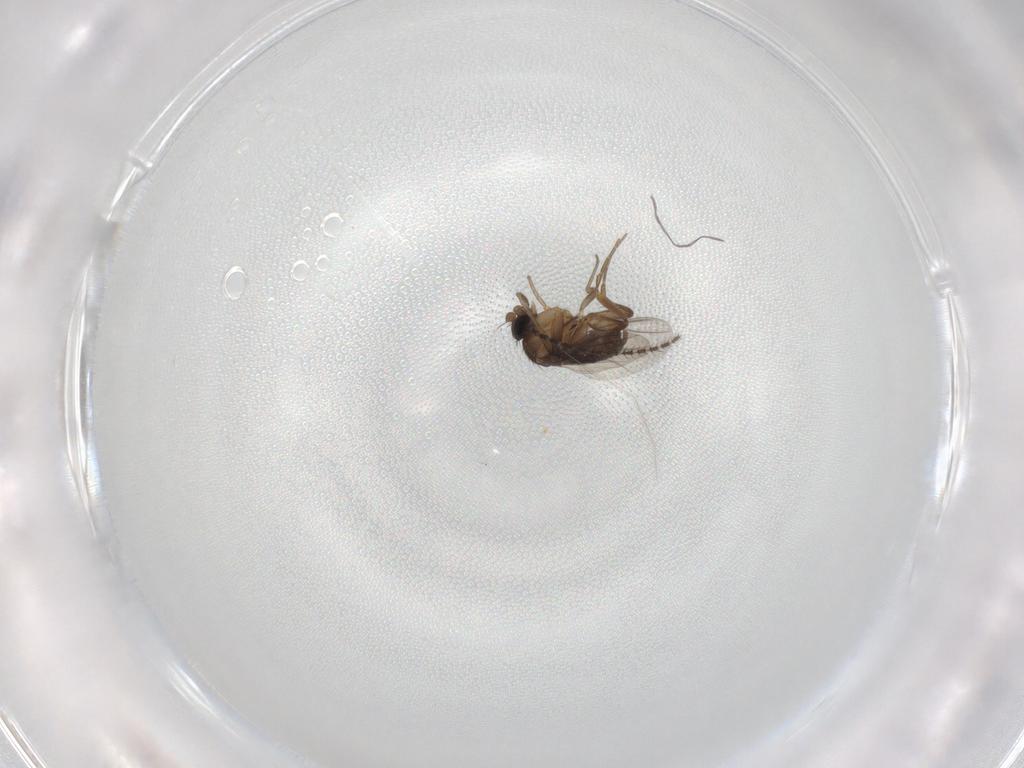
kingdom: Animalia
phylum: Arthropoda
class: Insecta
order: Diptera
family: Sciaridae
